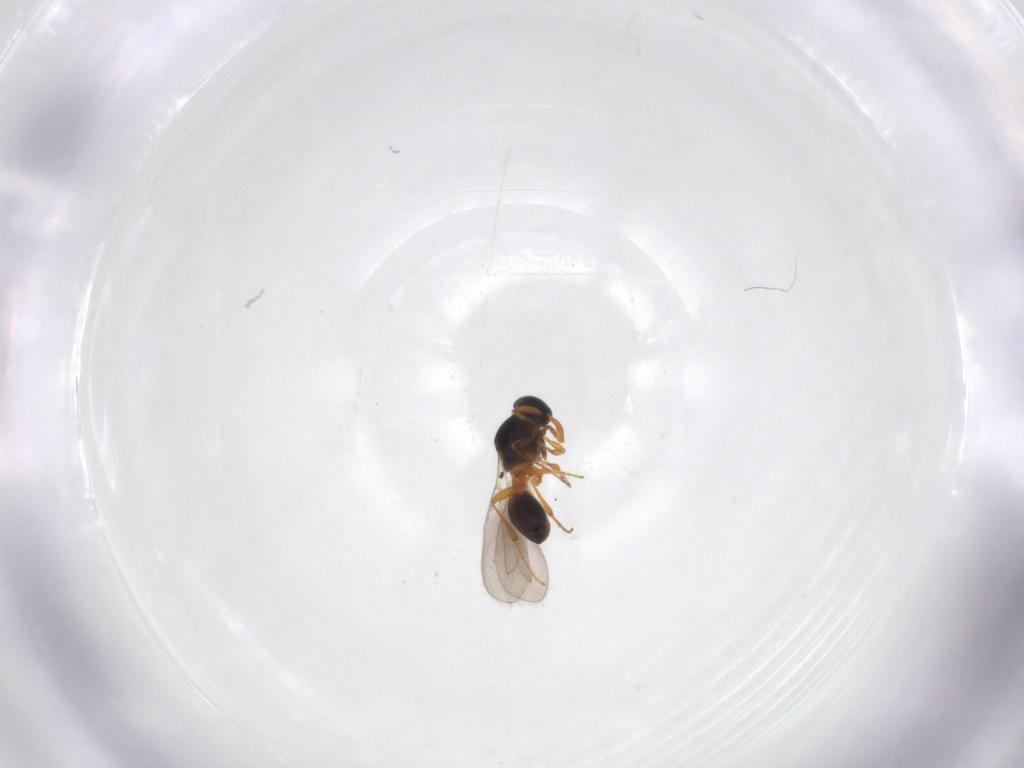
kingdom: Animalia
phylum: Arthropoda
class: Insecta
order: Hymenoptera
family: Platygastridae
